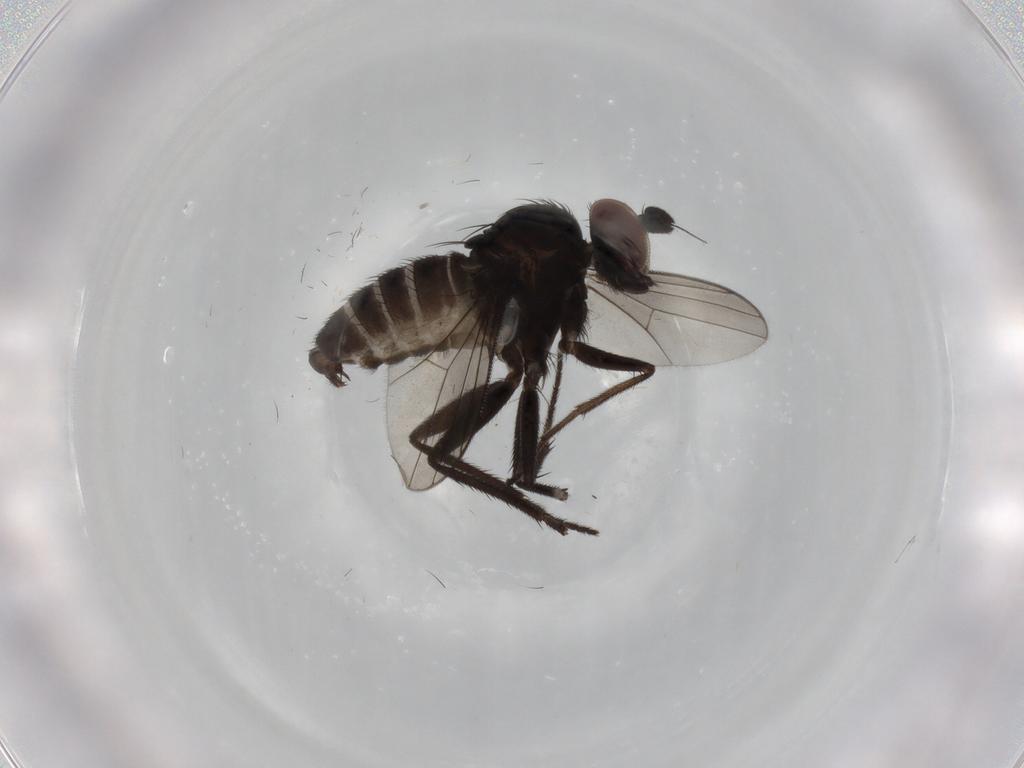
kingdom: Animalia
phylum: Arthropoda
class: Insecta
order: Diptera
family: Dolichopodidae
